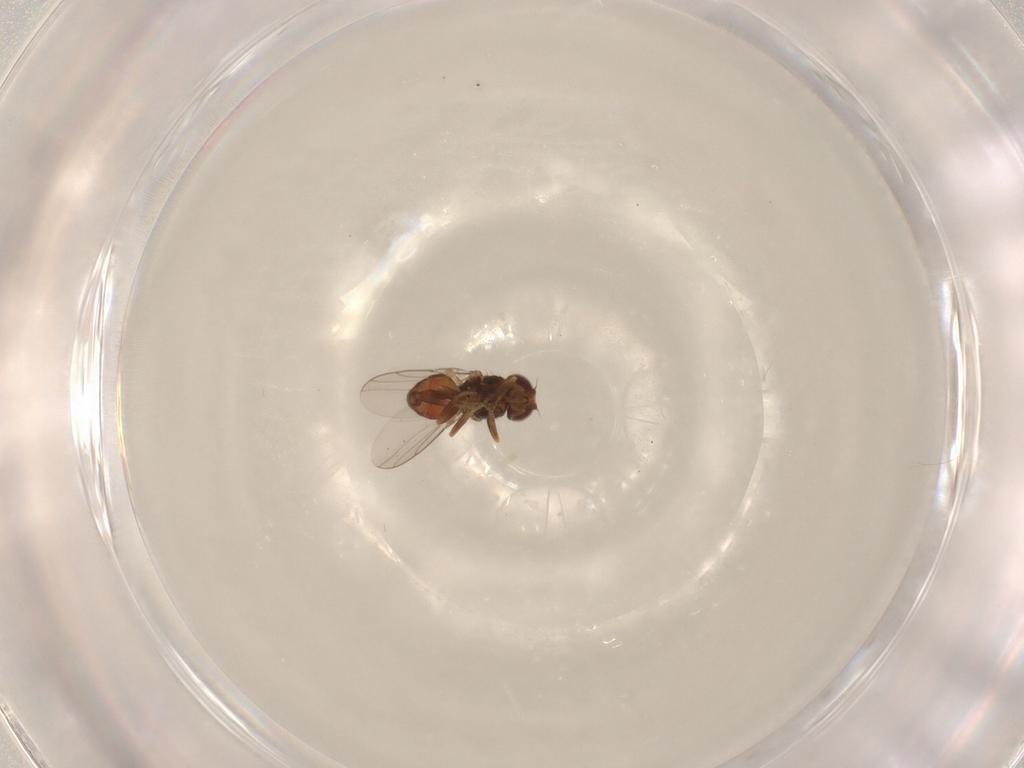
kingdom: Animalia
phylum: Arthropoda
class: Insecta
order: Diptera
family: Chloropidae
